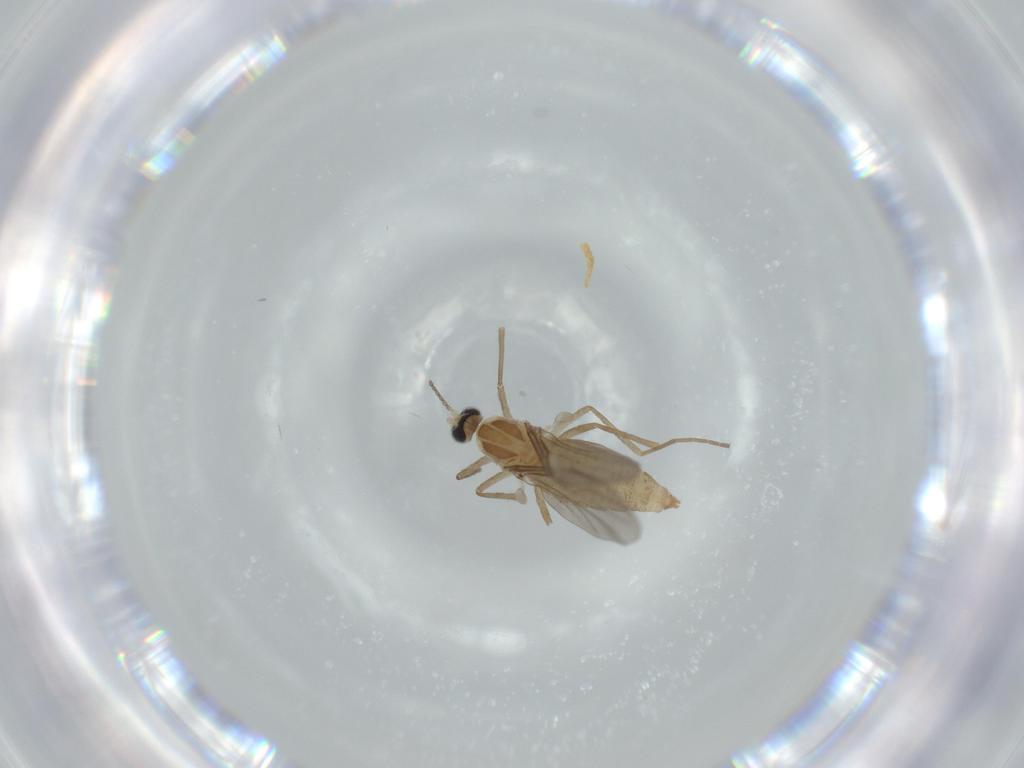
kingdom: Animalia
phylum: Arthropoda
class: Insecta
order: Diptera
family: Cecidomyiidae
